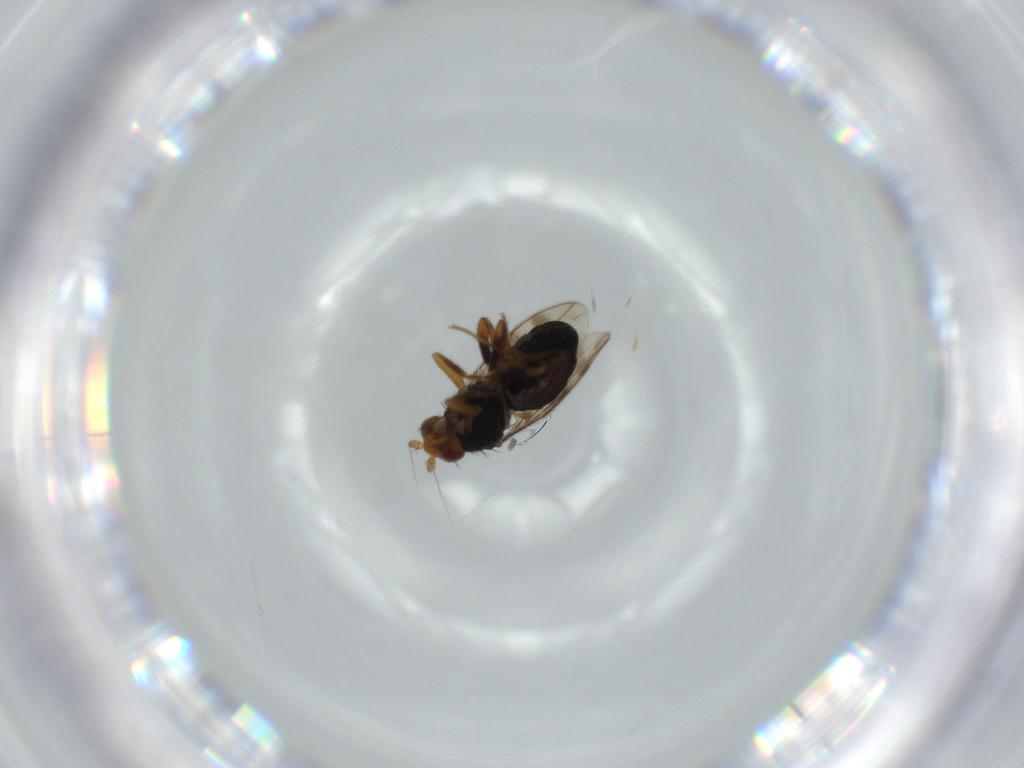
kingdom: Animalia
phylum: Arthropoda
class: Insecta
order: Diptera
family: Sphaeroceridae
